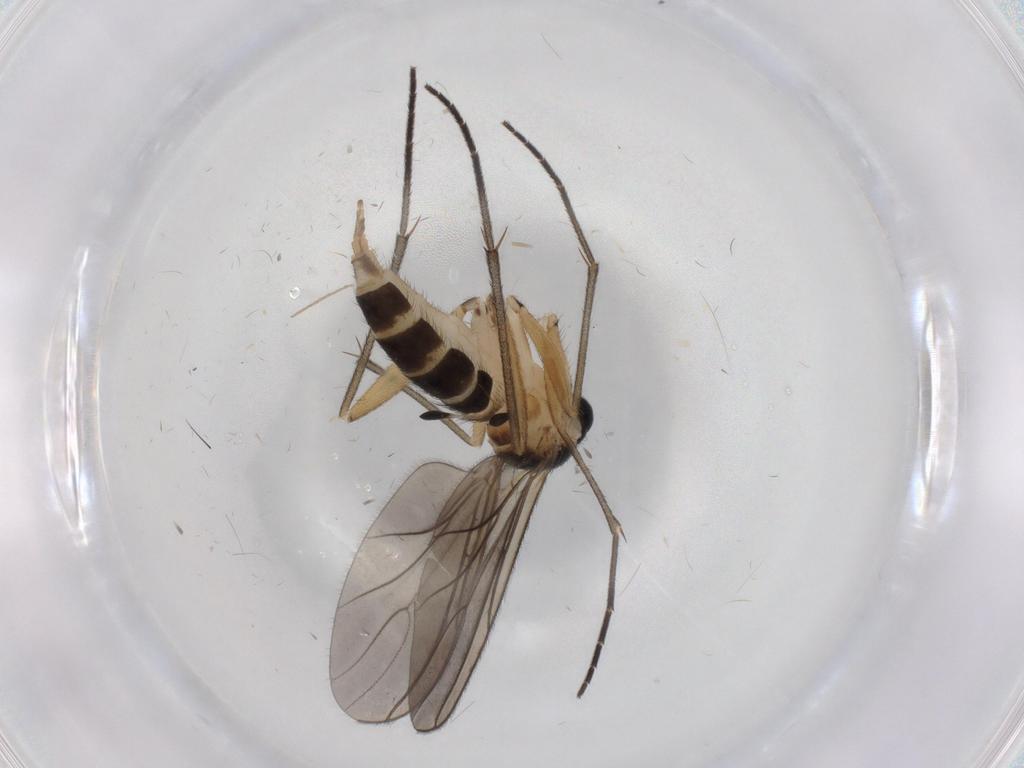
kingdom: Animalia
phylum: Arthropoda
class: Insecta
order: Diptera
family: Sciaridae
